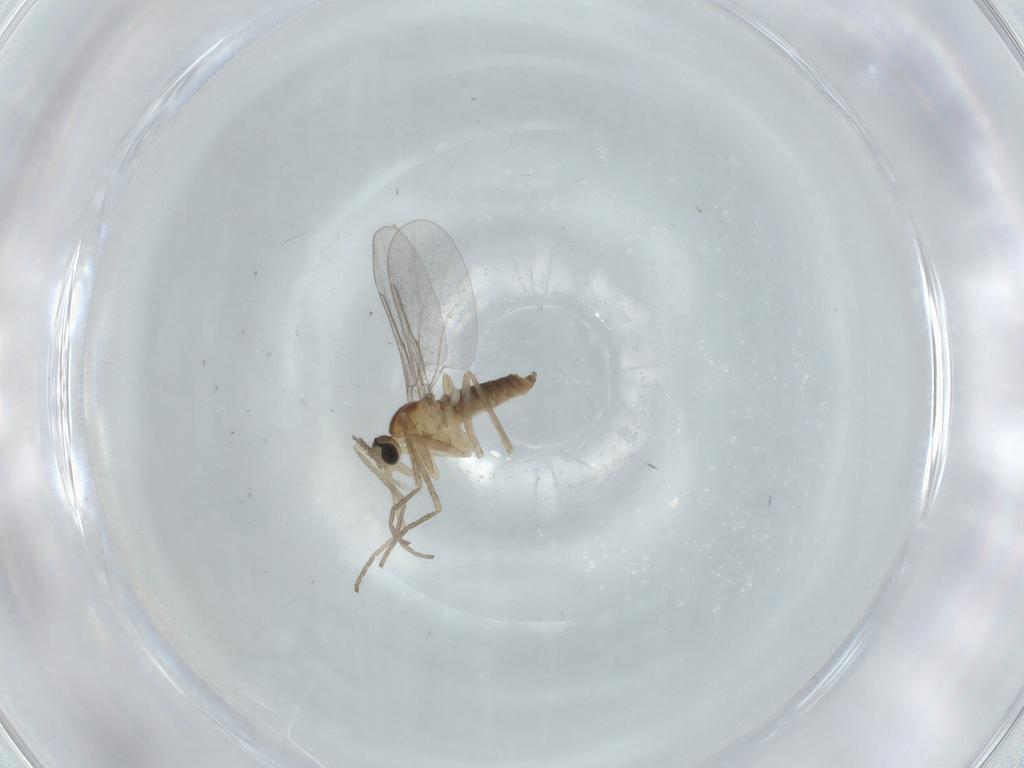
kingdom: Animalia
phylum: Arthropoda
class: Insecta
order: Diptera
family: Cecidomyiidae
